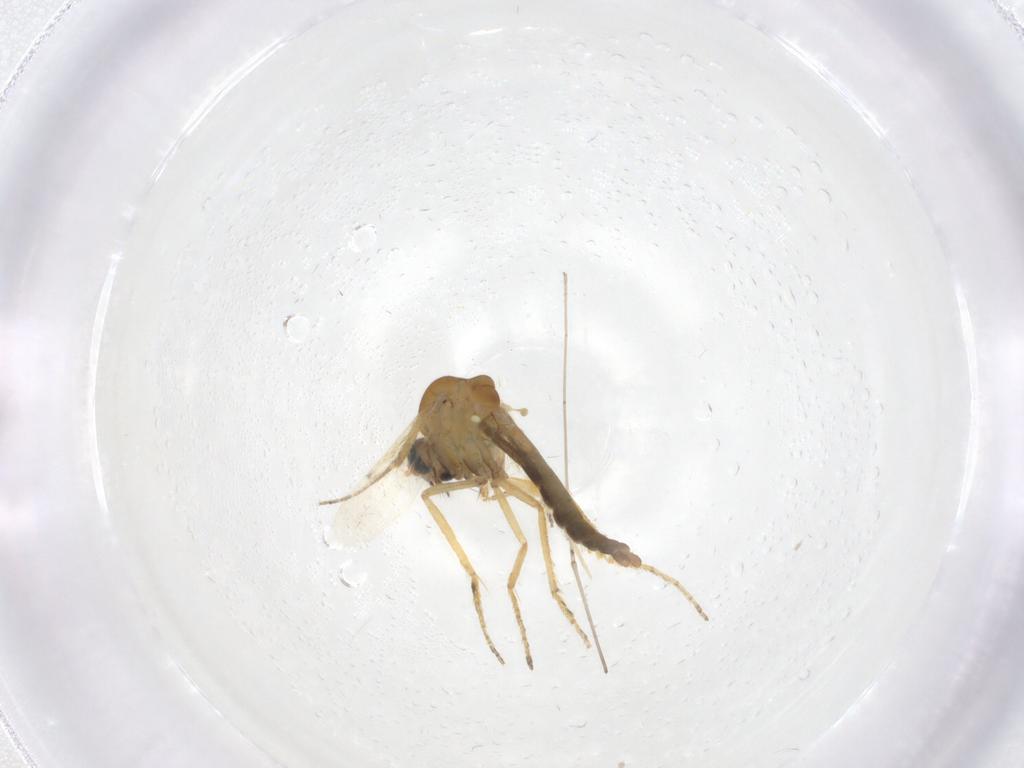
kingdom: Animalia
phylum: Arthropoda
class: Insecta
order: Diptera
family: Ceratopogonidae
